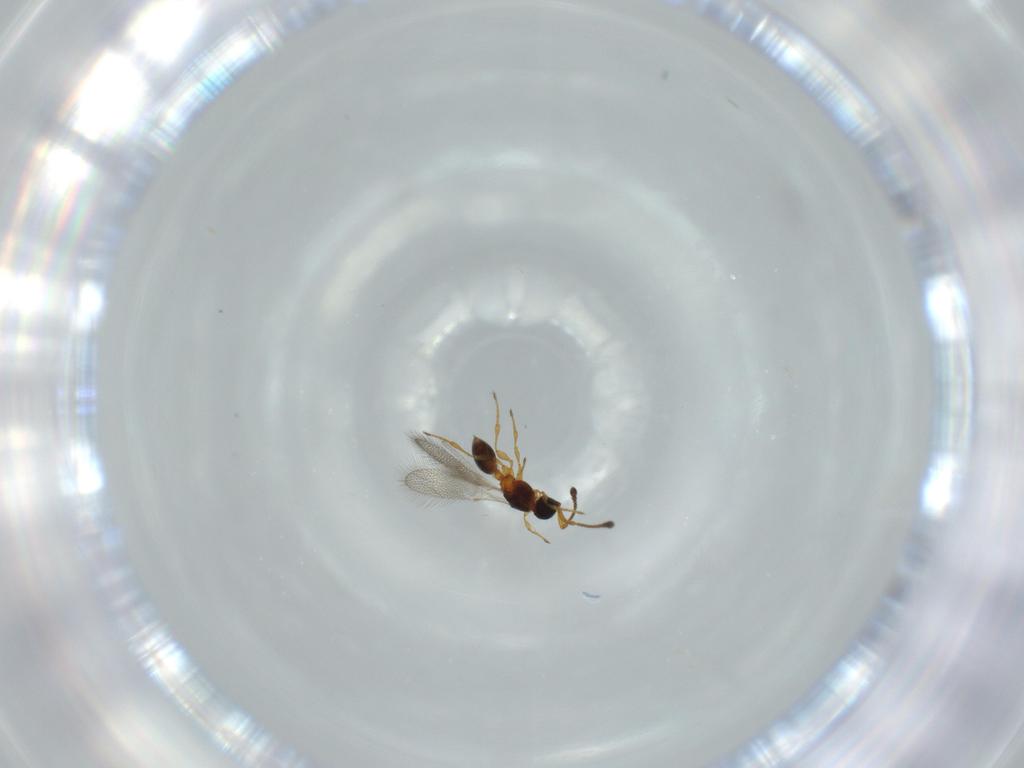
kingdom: Animalia
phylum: Arthropoda
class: Insecta
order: Hymenoptera
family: Diapriidae
